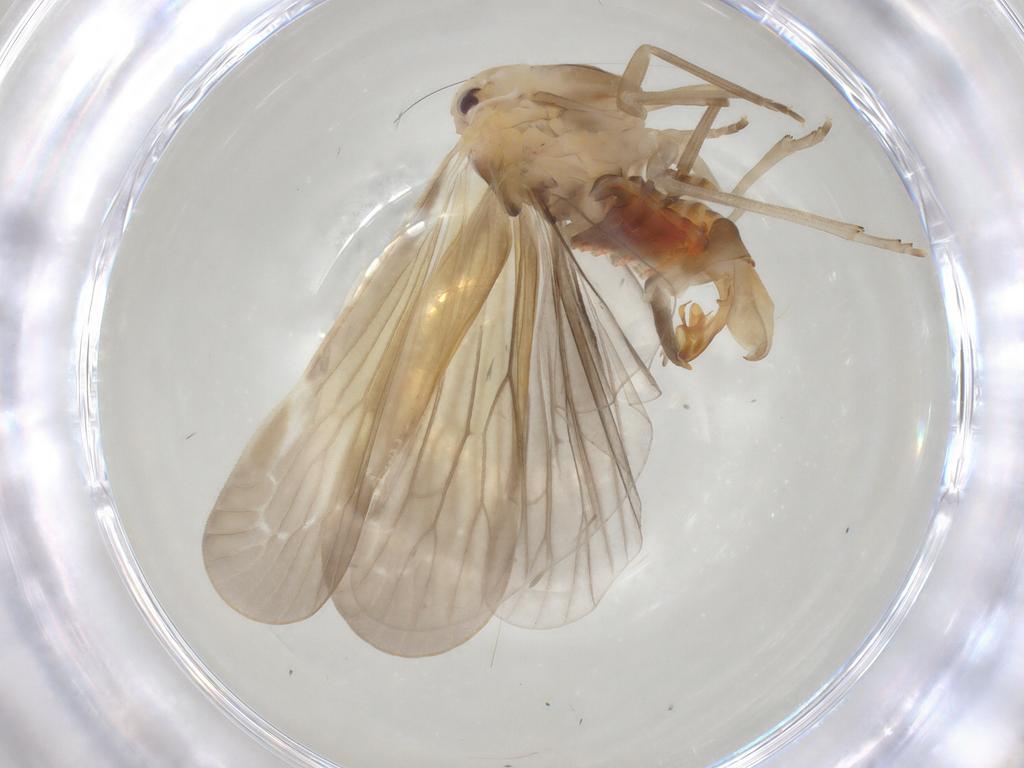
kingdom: Animalia
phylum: Arthropoda
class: Insecta
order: Hemiptera
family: Derbidae
